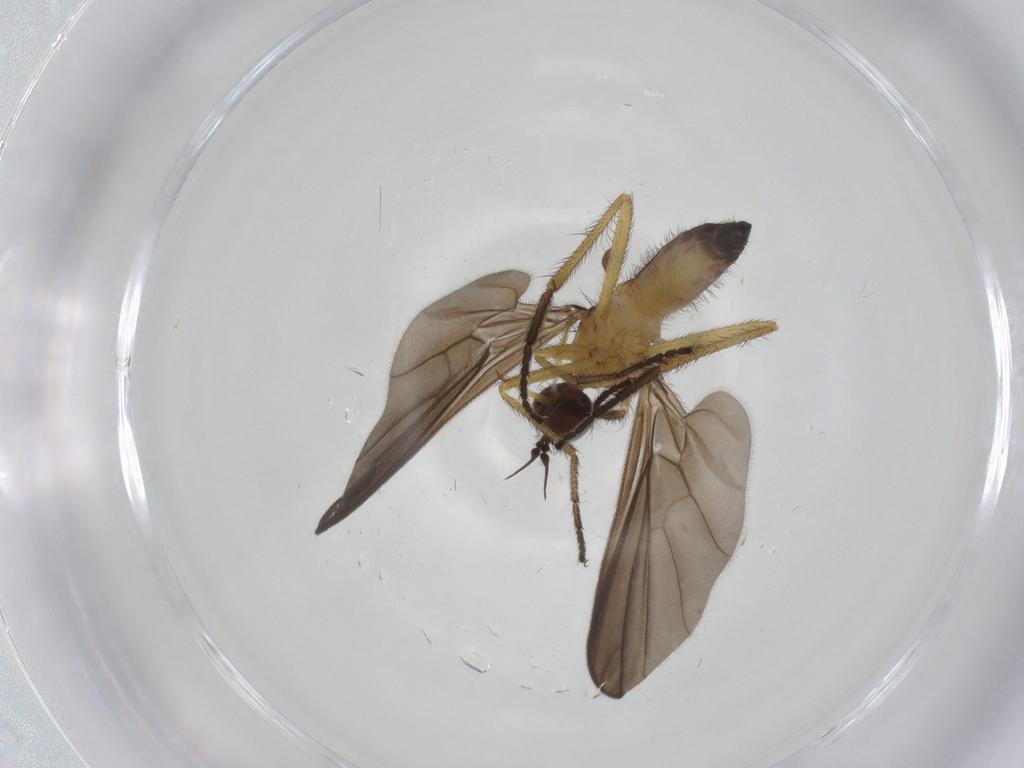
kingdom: Animalia
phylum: Arthropoda
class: Insecta
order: Diptera
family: Empididae
